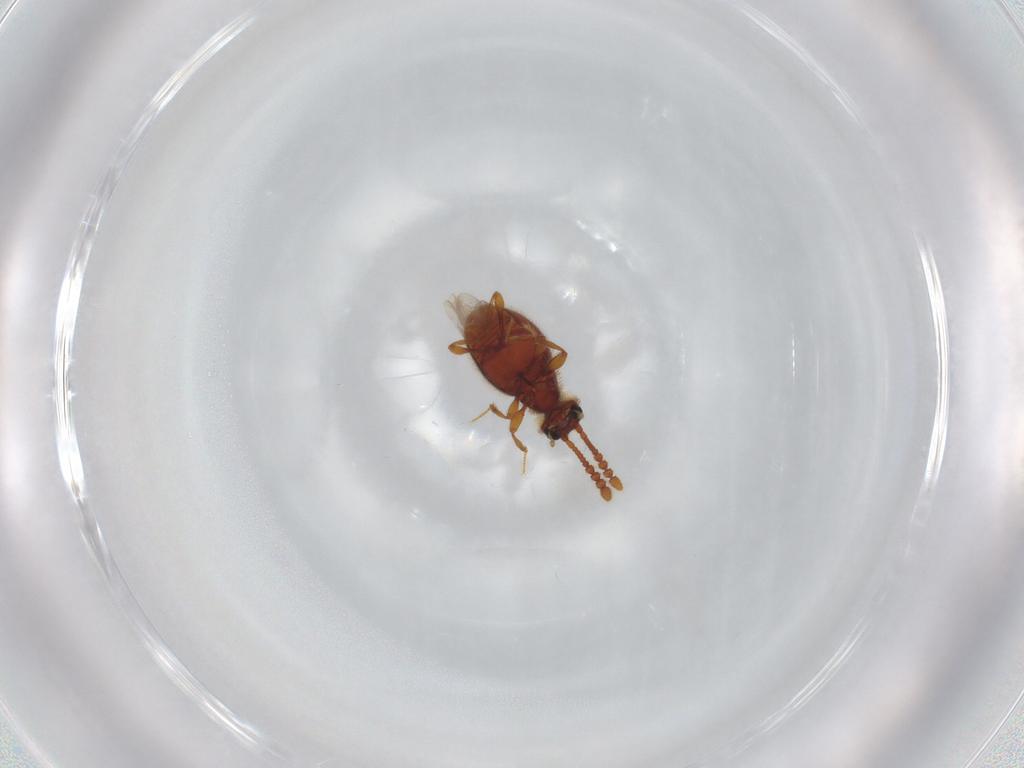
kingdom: Animalia
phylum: Arthropoda
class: Insecta
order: Coleoptera
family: Staphylinidae
